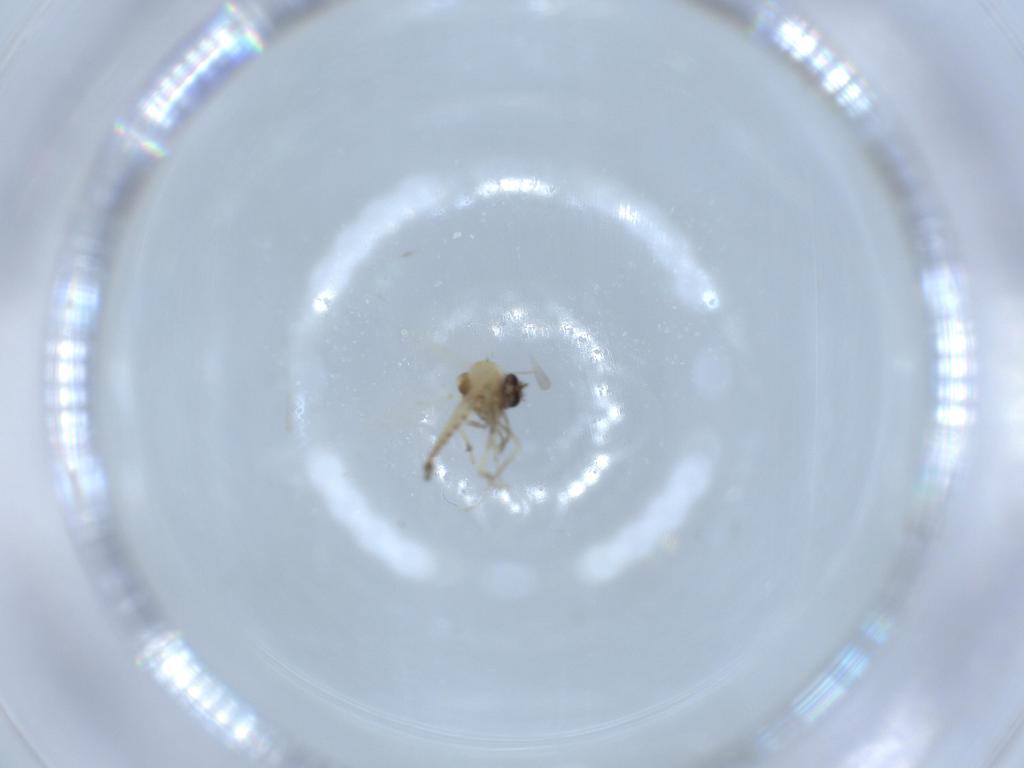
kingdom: Animalia
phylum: Arthropoda
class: Insecta
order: Diptera
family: Ceratopogonidae
